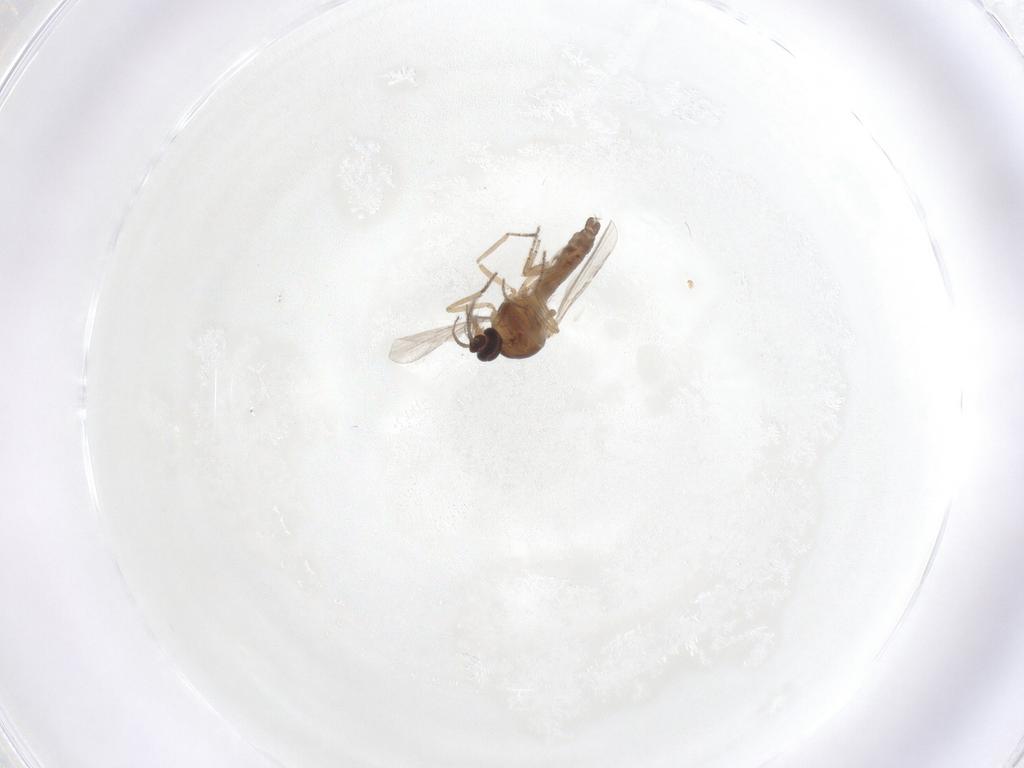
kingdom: Animalia
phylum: Arthropoda
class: Insecta
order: Diptera
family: Ceratopogonidae
